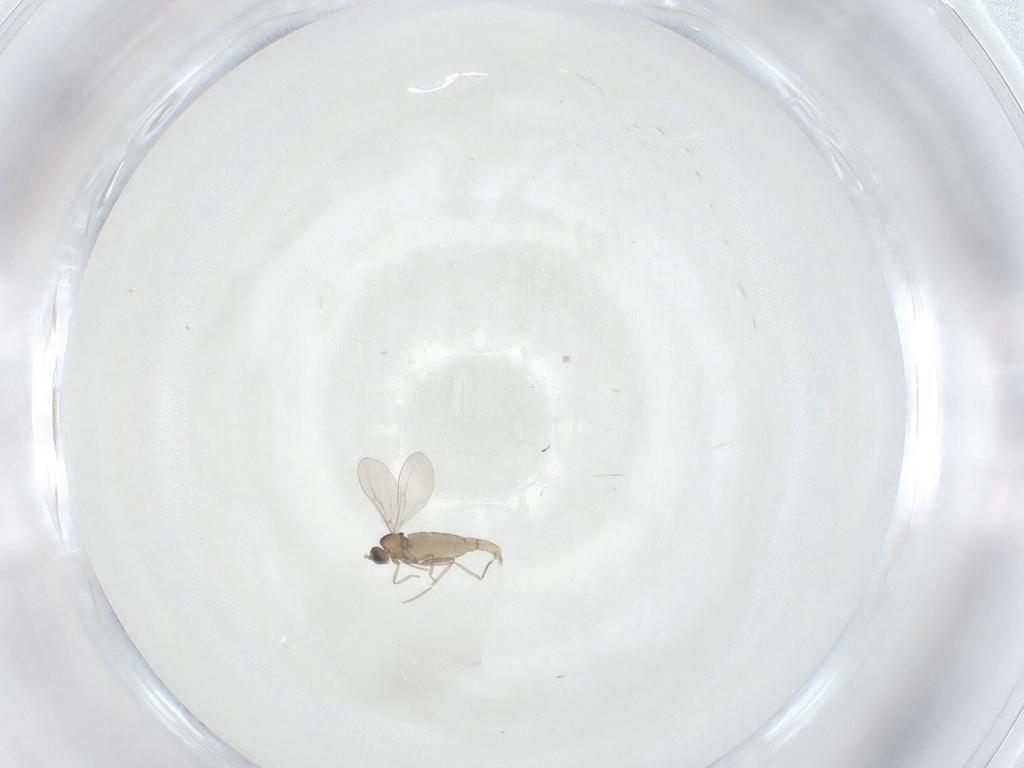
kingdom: Animalia
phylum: Arthropoda
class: Insecta
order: Diptera
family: Cecidomyiidae
